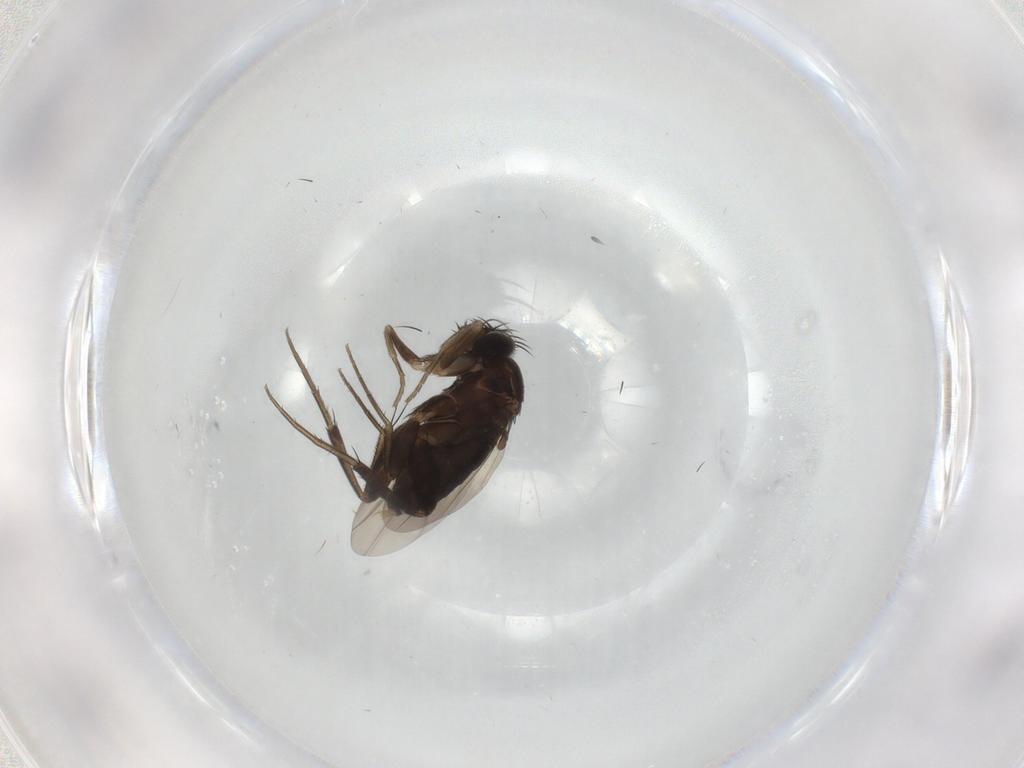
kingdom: Animalia
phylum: Arthropoda
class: Insecta
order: Diptera
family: Phoridae
